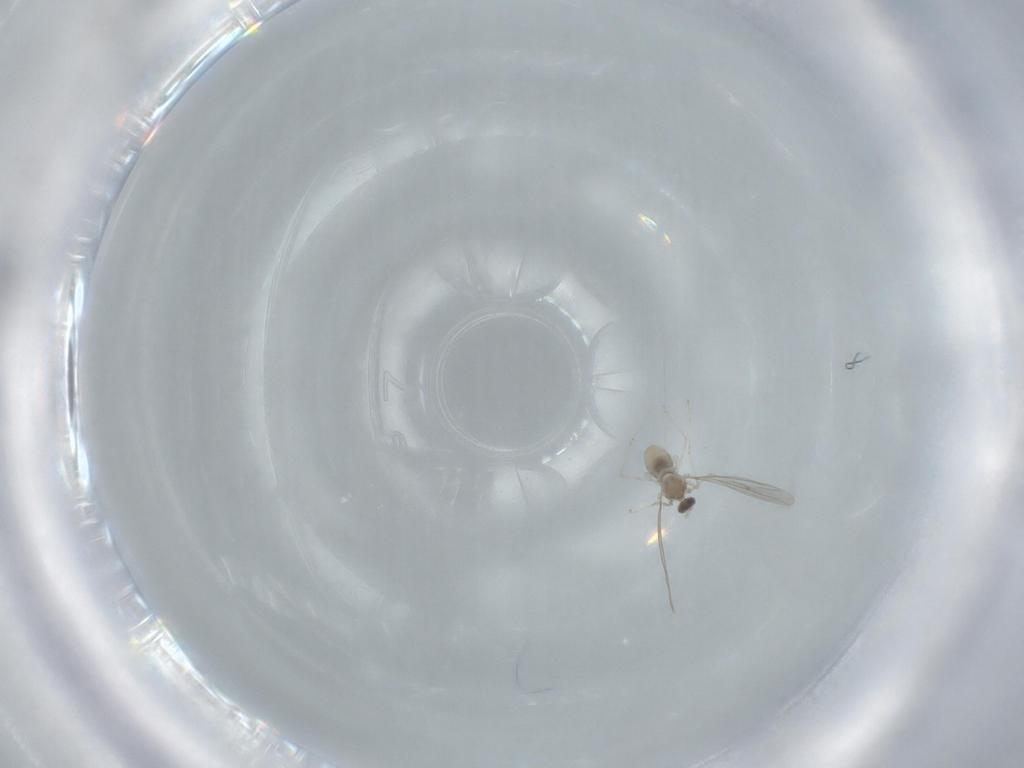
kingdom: Animalia
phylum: Arthropoda
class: Insecta
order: Diptera
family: Cecidomyiidae
